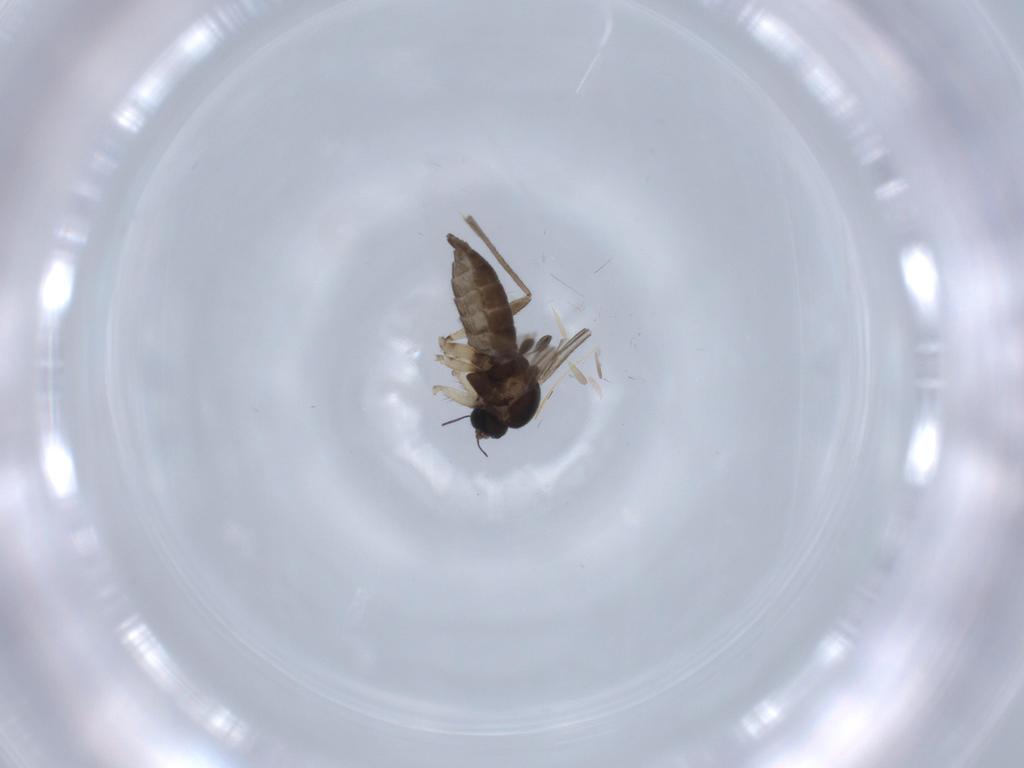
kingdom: Animalia
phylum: Arthropoda
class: Insecta
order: Diptera
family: Sciaridae
